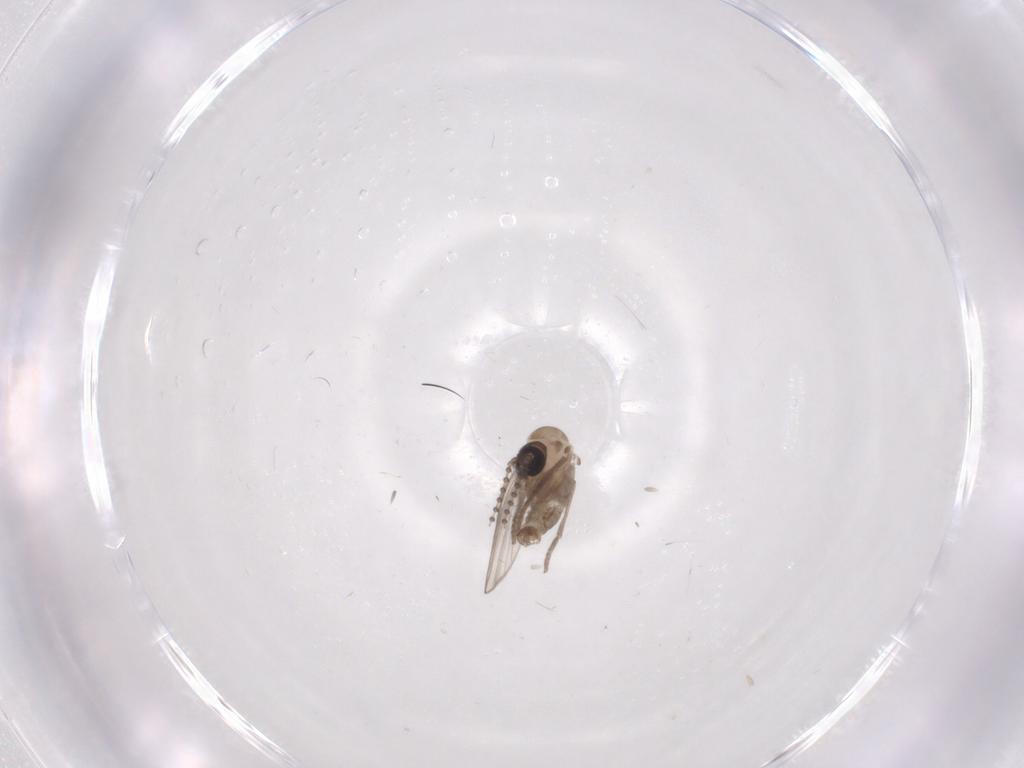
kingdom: Animalia
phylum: Arthropoda
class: Insecta
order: Diptera
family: Psychodidae
